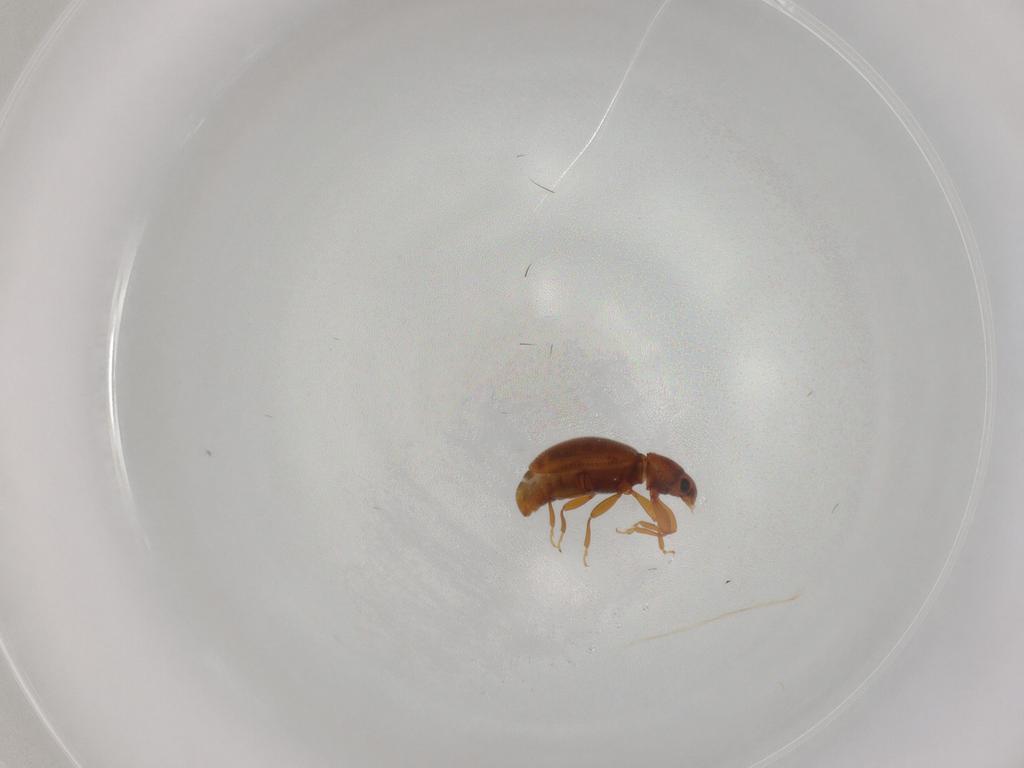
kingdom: Animalia
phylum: Arthropoda
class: Insecta
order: Coleoptera
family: Latridiidae
